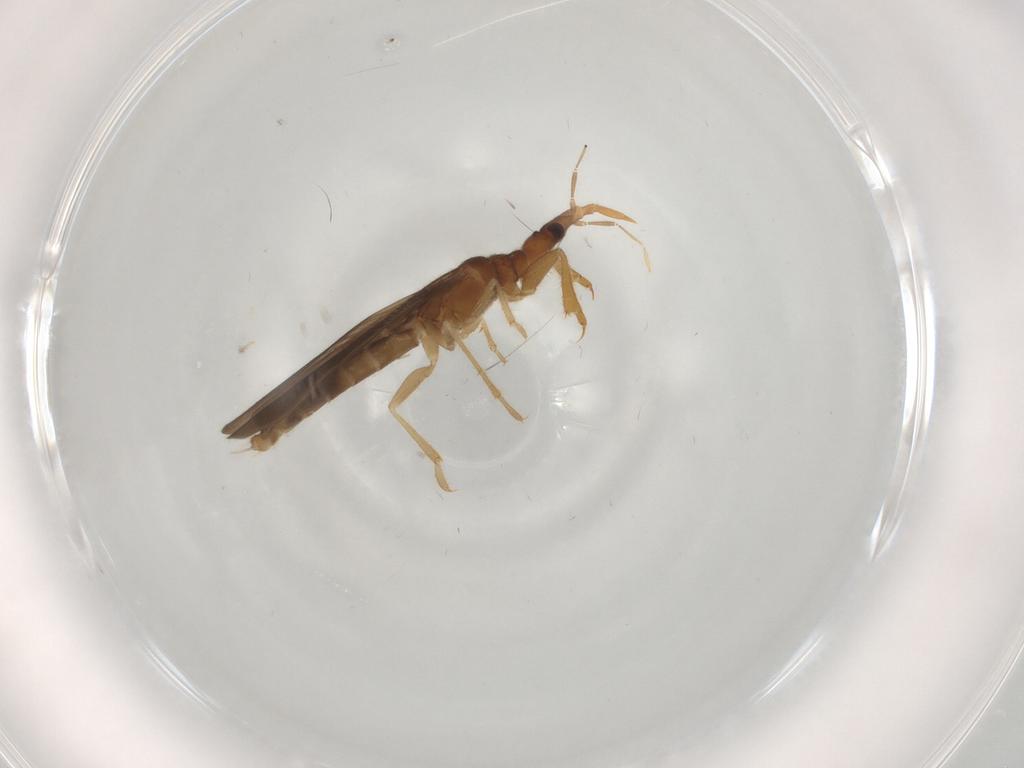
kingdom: Animalia
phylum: Arthropoda
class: Insecta
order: Hemiptera
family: Enicocephalidae
